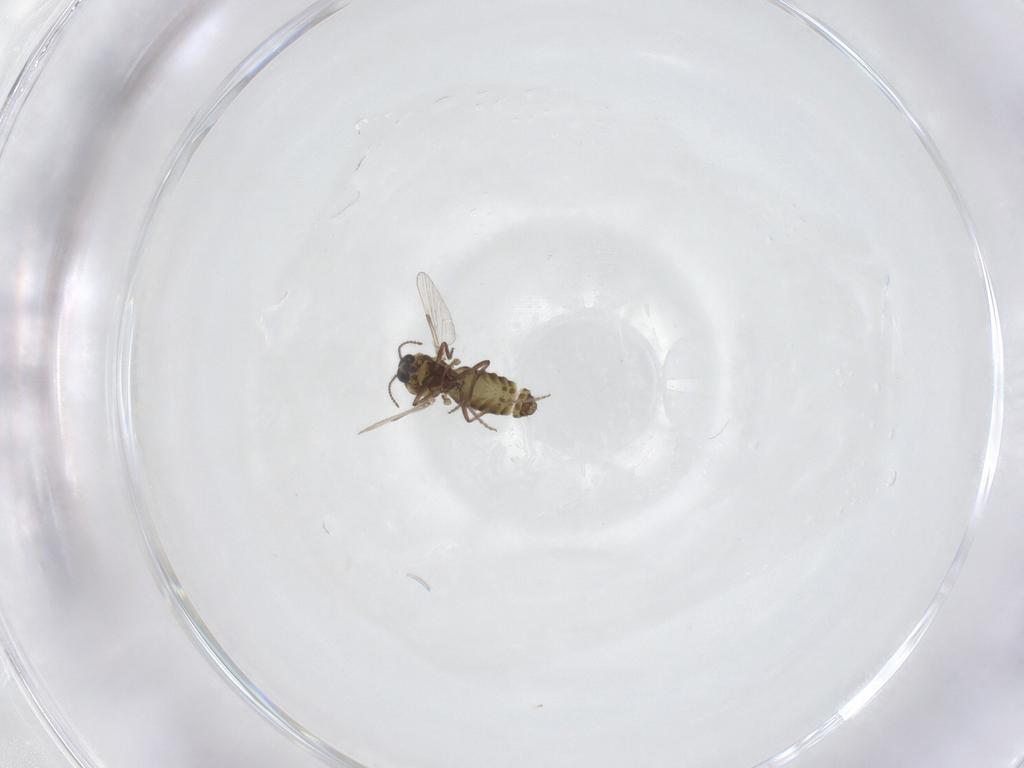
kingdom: Animalia
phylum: Arthropoda
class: Insecta
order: Diptera
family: Ceratopogonidae
